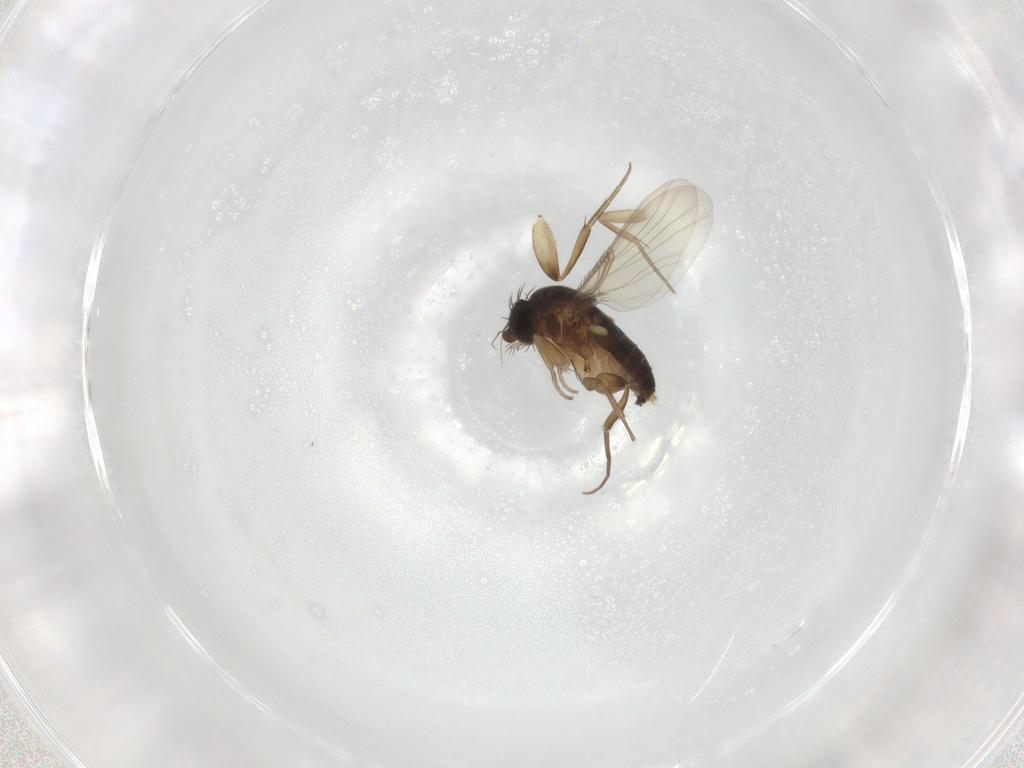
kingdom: Animalia
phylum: Arthropoda
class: Insecta
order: Diptera
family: Phoridae
